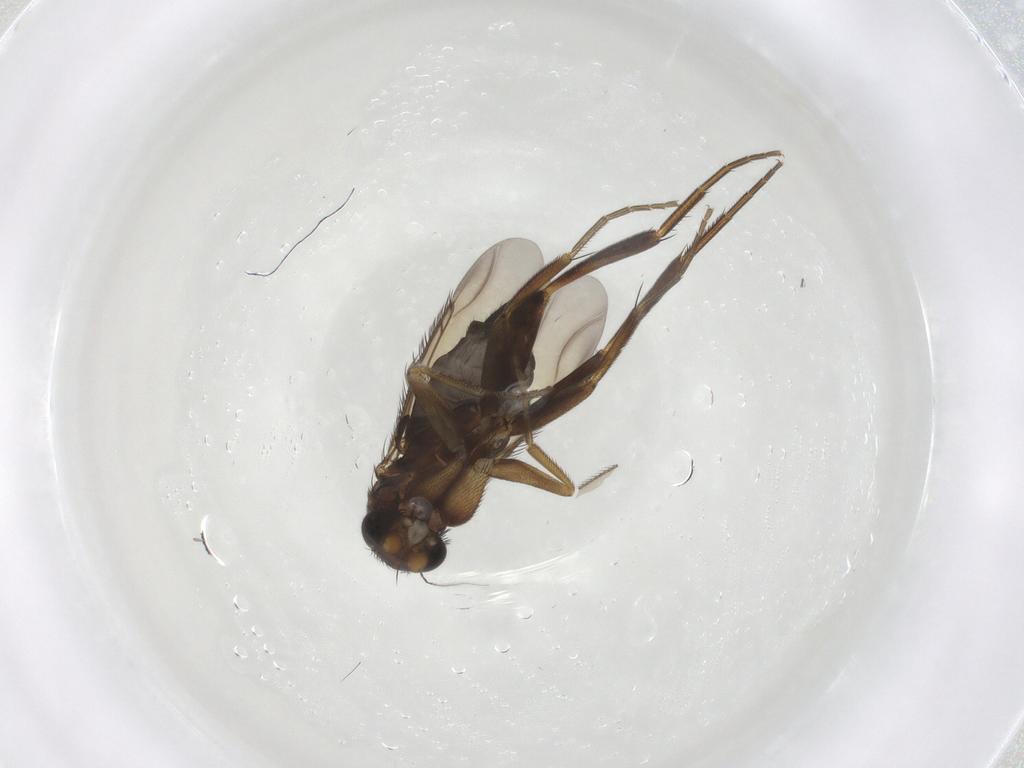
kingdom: Animalia
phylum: Arthropoda
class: Insecta
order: Diptera
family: Phoridae
